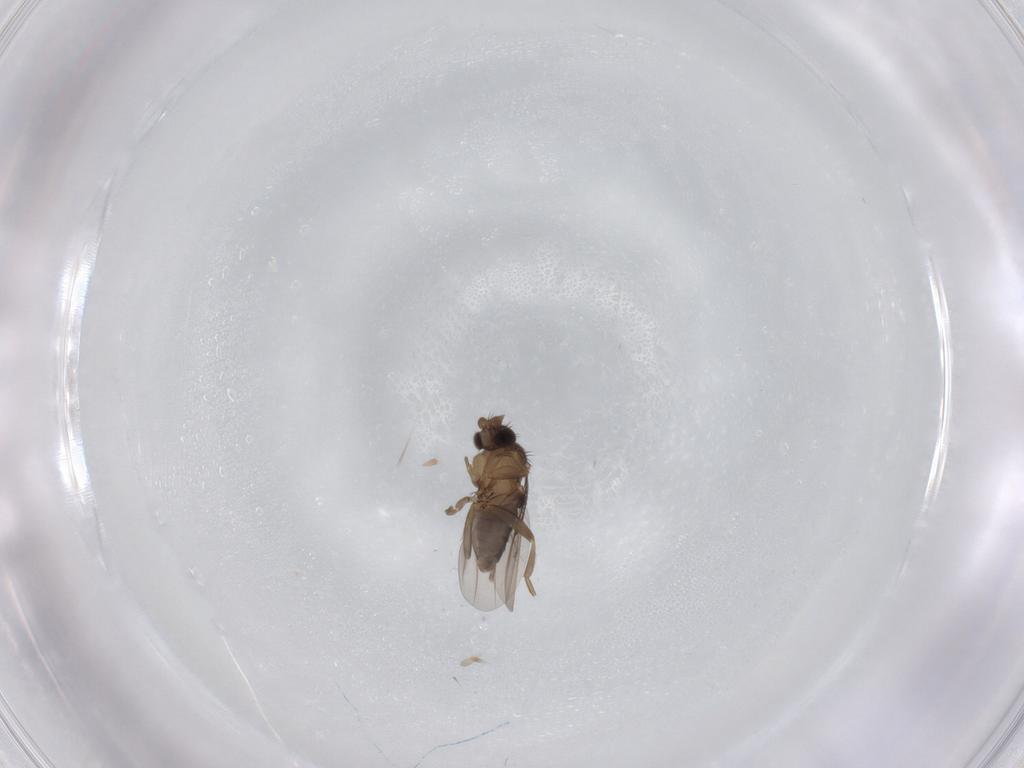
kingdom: Animalia
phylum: Arthropoda
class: Insecta
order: Diptera
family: Phoridae
